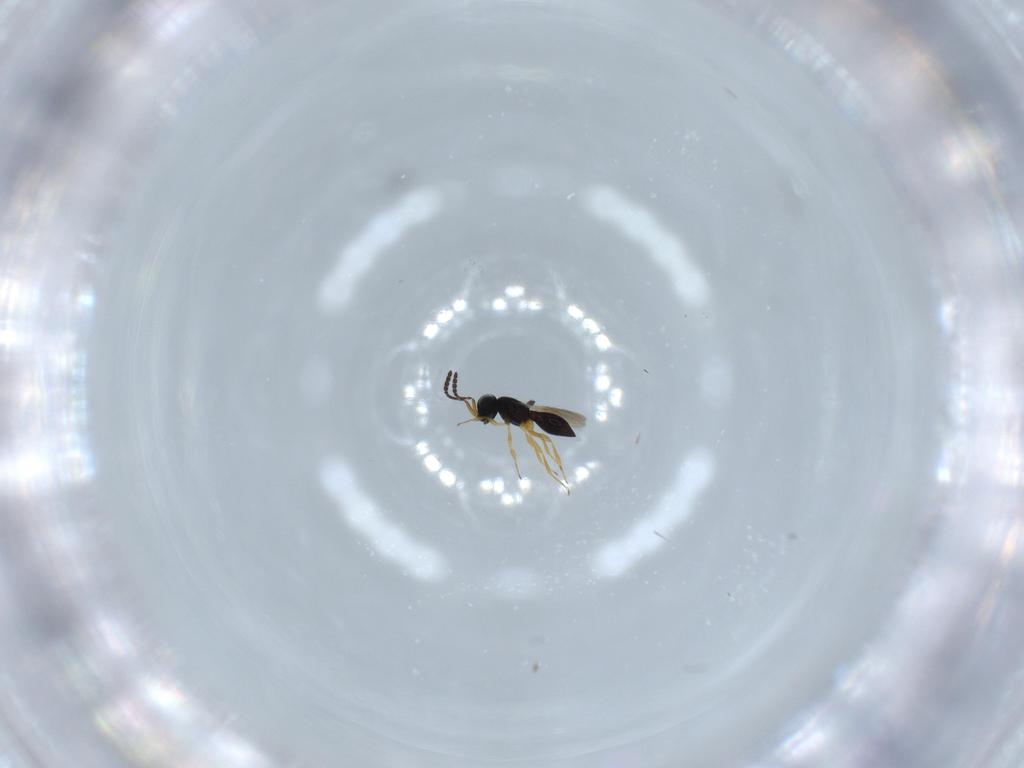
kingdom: Animalia
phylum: Arthropoda
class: Insecta
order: Hymenoptera
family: Scelionidae
